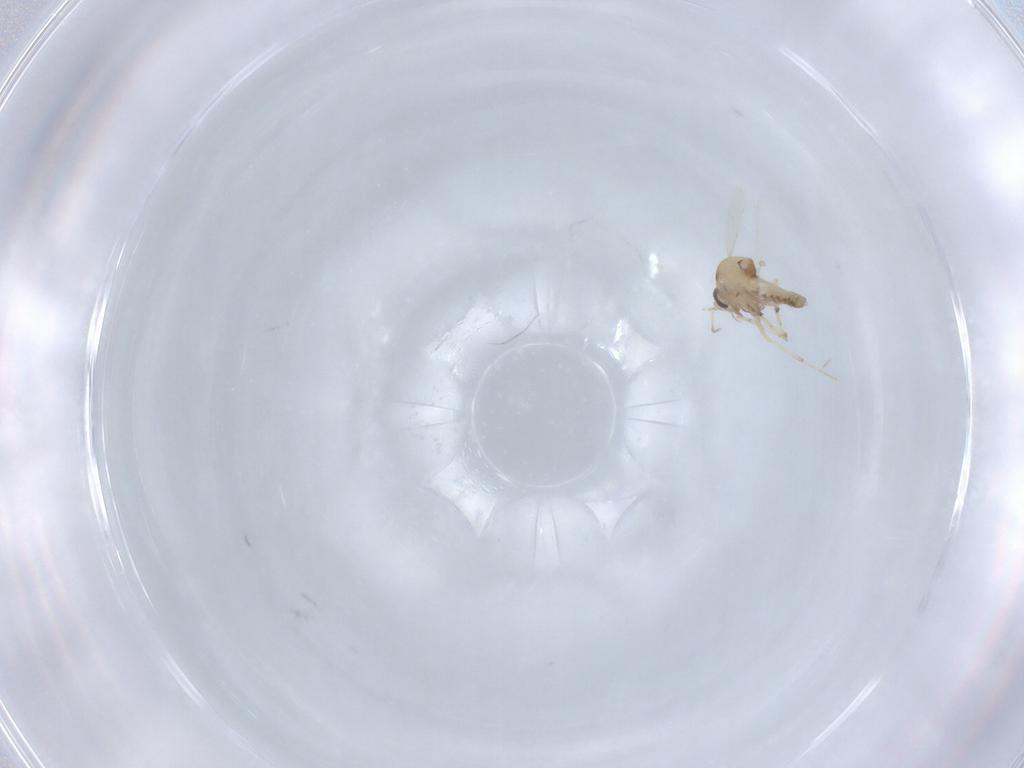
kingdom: Animalia
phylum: Arthropoda
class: Insecta
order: Diptera
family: Ceratopogonidae
